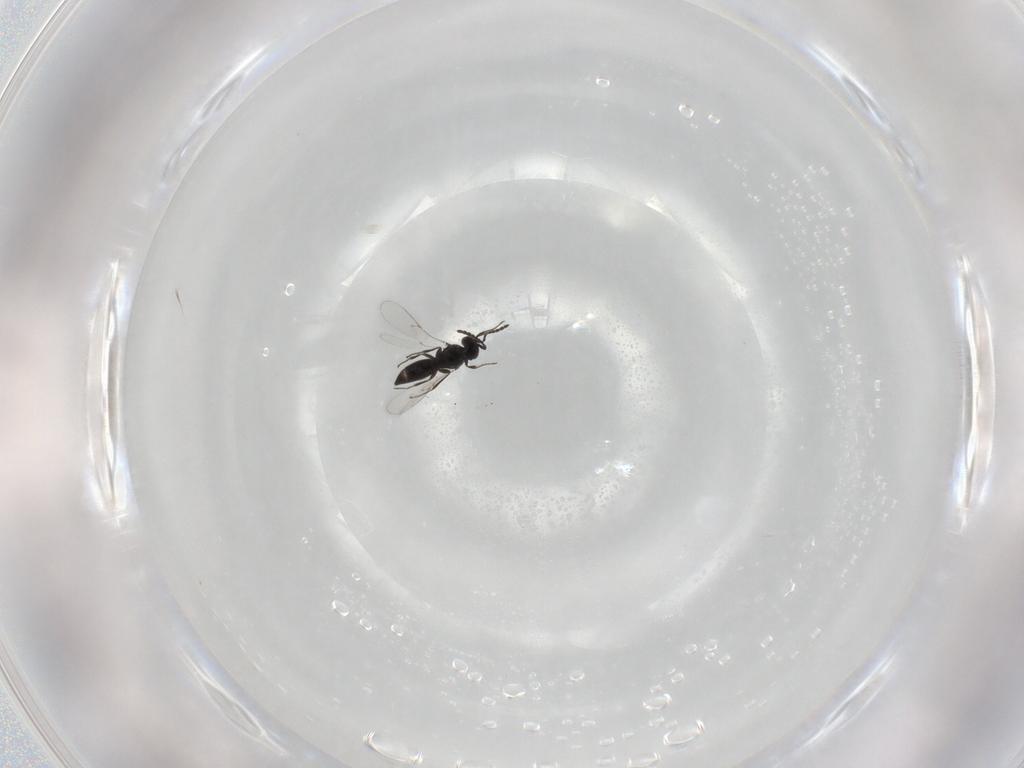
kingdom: Animalia
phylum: Arthropoda
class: Insecta
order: Hymenoptera
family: Scelionidae
